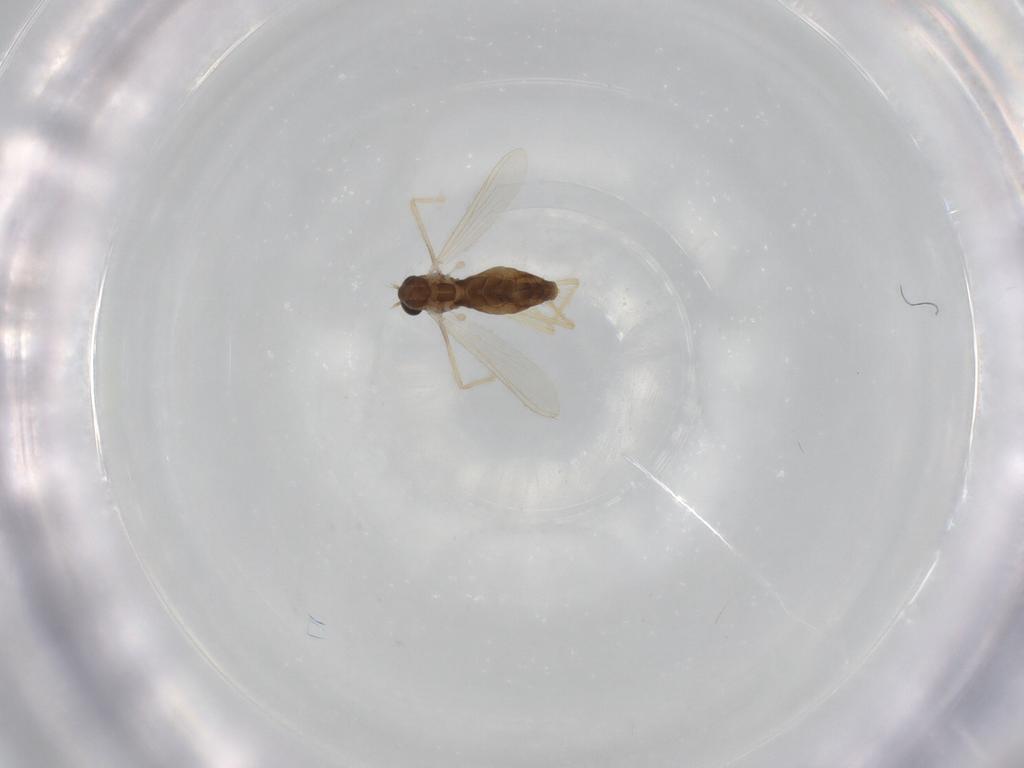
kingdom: Animalia
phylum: Arthropoda
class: Insecta
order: Diptera
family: Chironomidae
